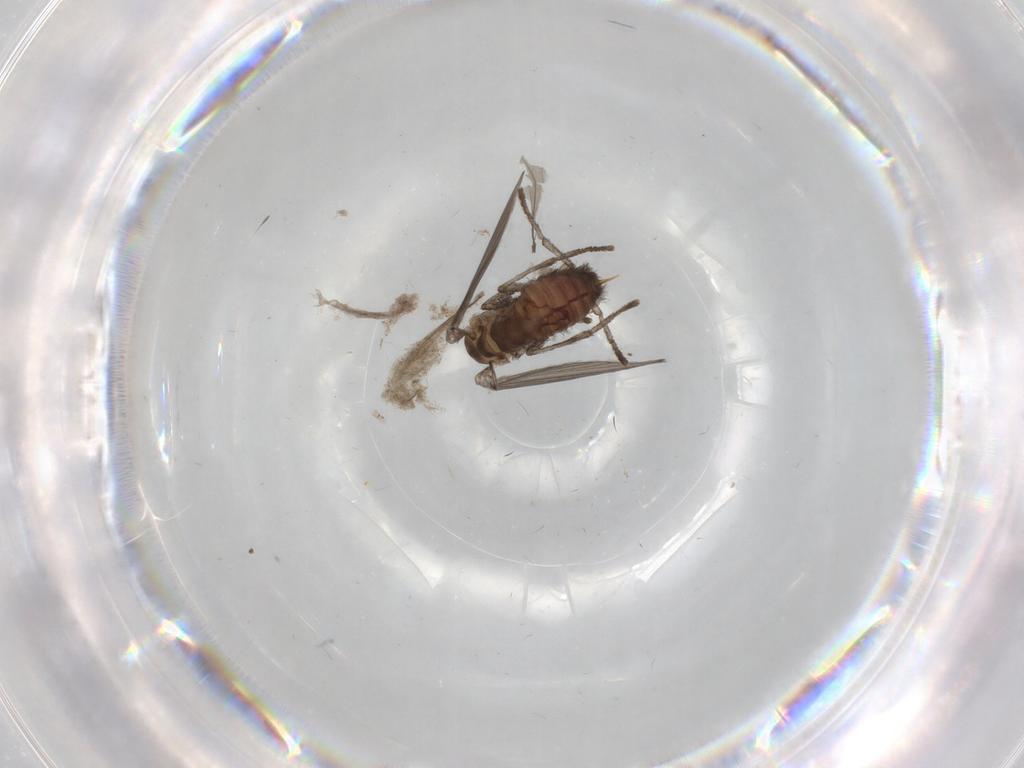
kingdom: Animalia
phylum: Arthropoda
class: Insecta
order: Diptera
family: Psychodidae
